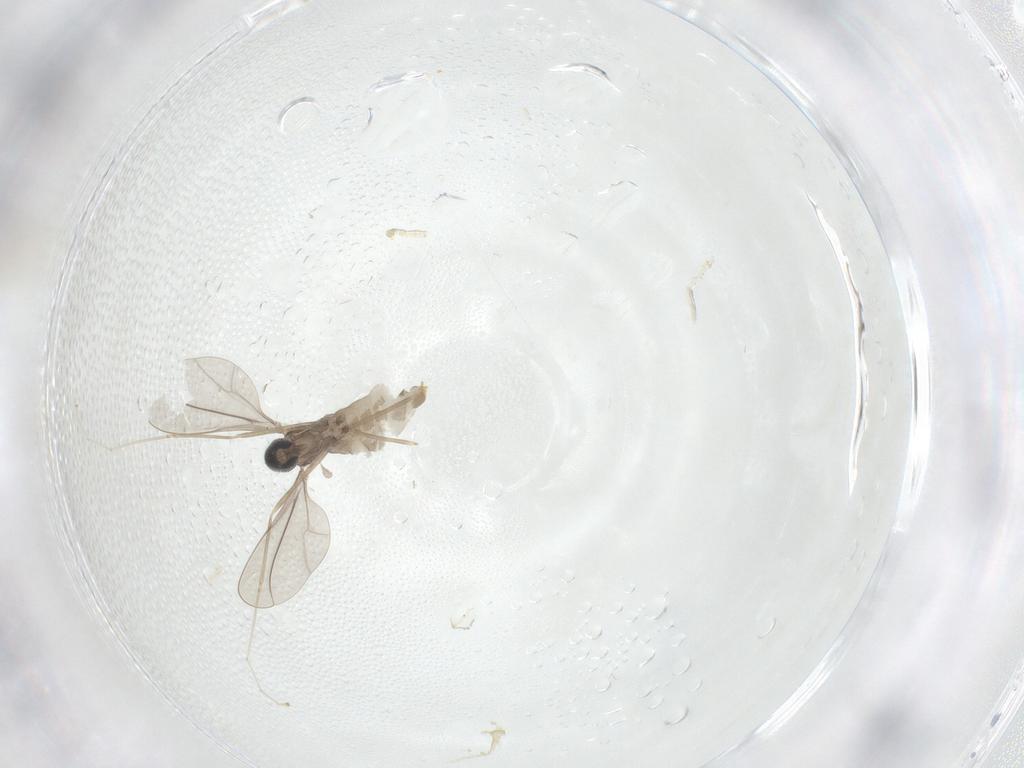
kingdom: Animalia
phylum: Arthropoda
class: Insecta
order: Diptera
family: Cecidomyiidae
